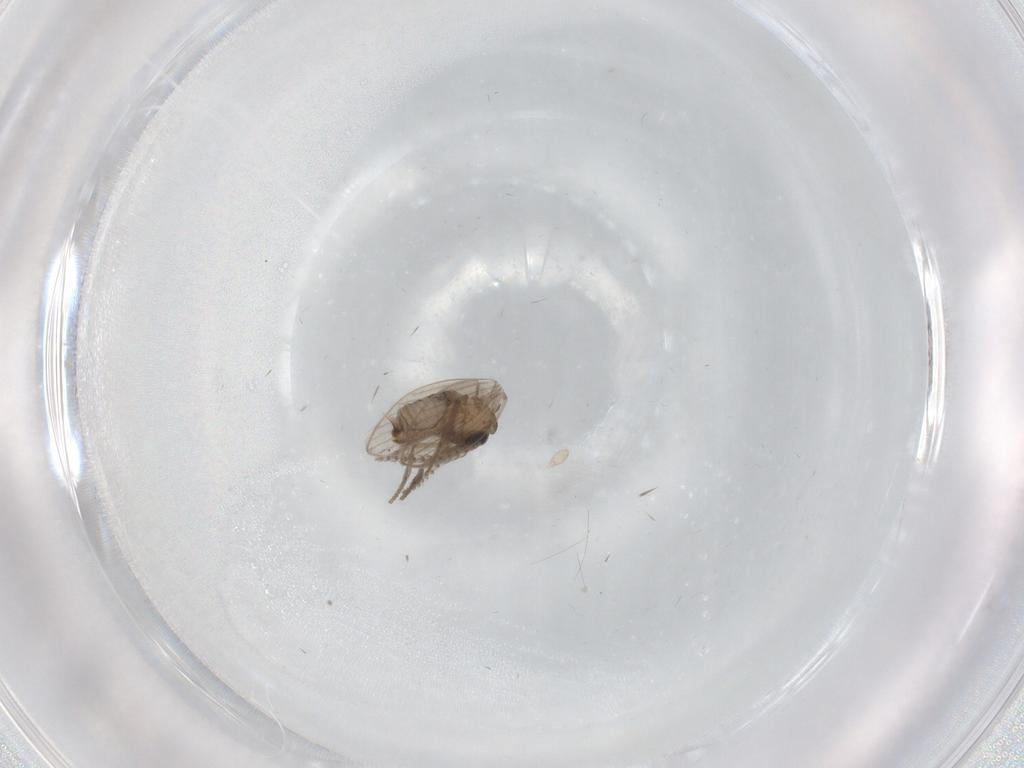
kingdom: Animalia
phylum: Arthropoda
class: Insecta
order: Diptera
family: Psychodidae
